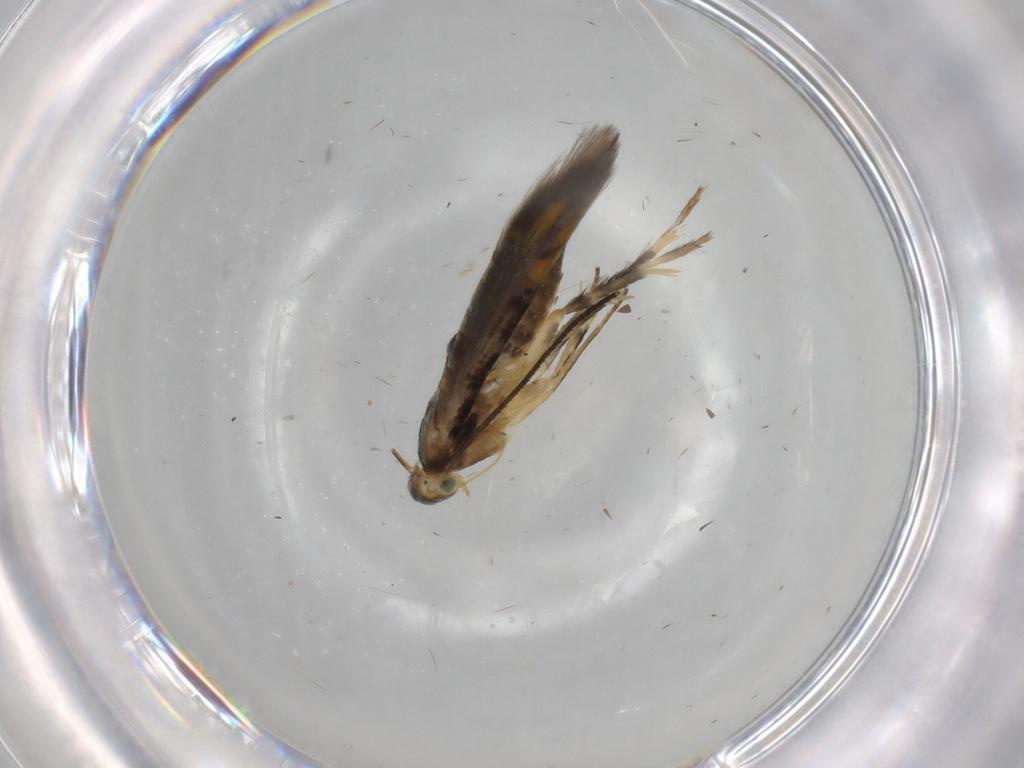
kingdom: Animalia
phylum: Arthropoda
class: Insecta
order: Lepidoptera
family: Heliodinidae
